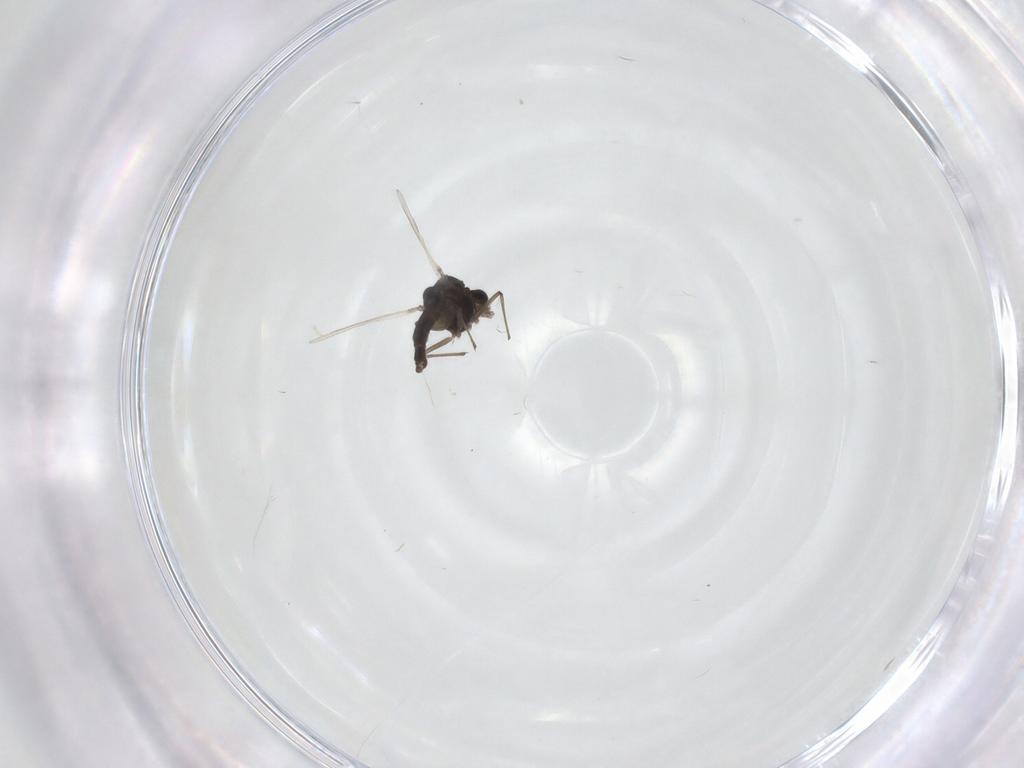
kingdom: Animalia
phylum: Arthropoda
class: Insecta
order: Diptera
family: Chironomidae
